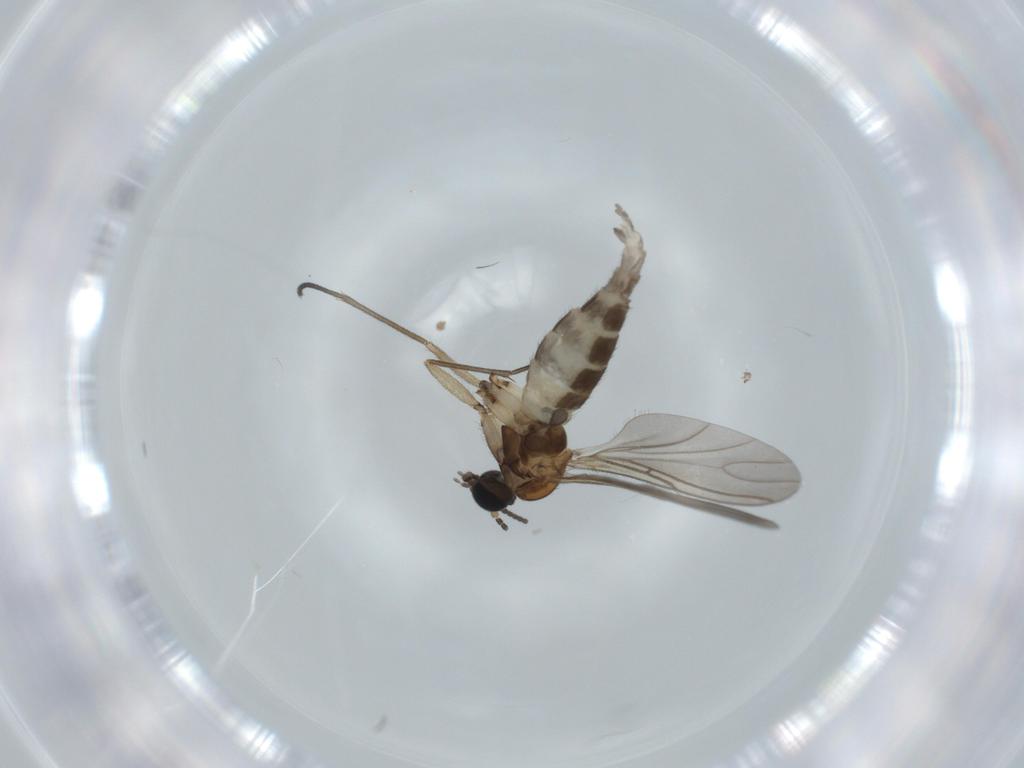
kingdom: Animalia
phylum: Arthropoda
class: Insecta
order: Diptera
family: Sciaridae
